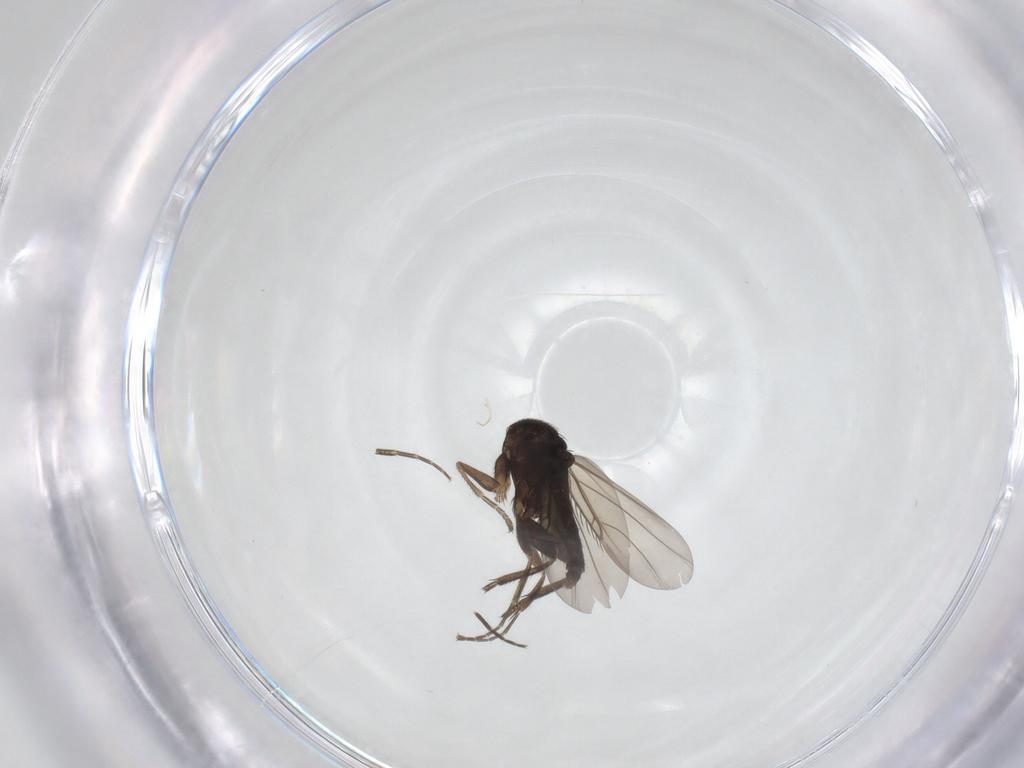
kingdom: Animalia
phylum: Arthropoda
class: Insecta
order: Diptera
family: Phoridae
